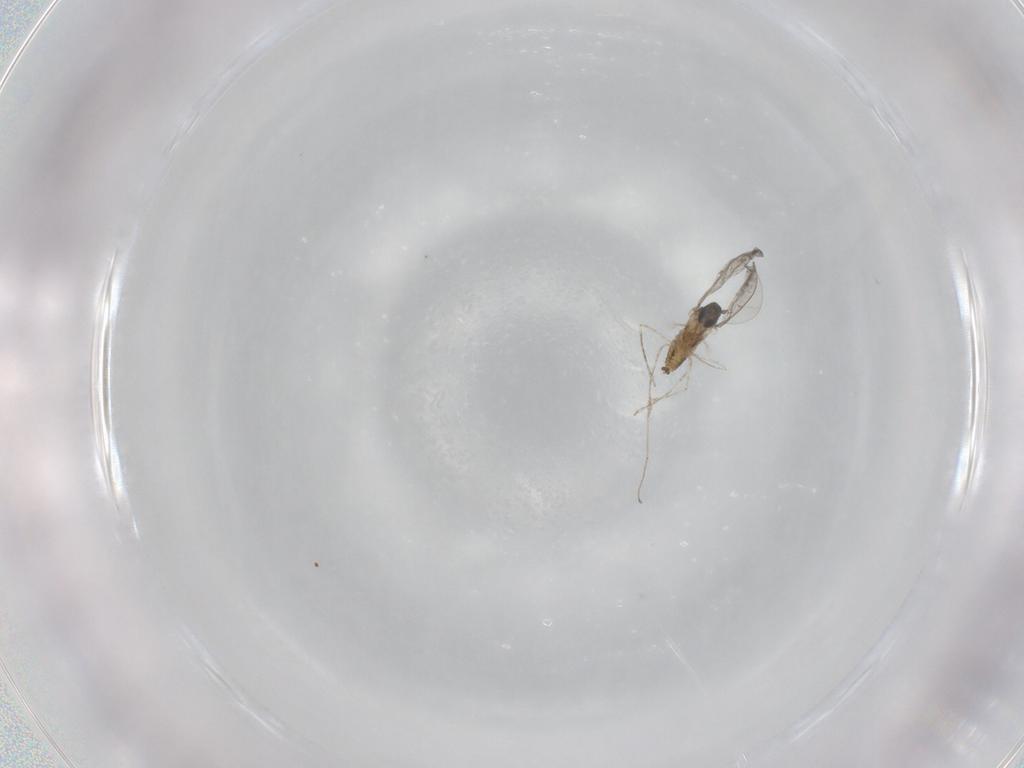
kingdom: Animalia
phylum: Arthropoda
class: Insecta
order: Diptera
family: Cecidomyiidae
